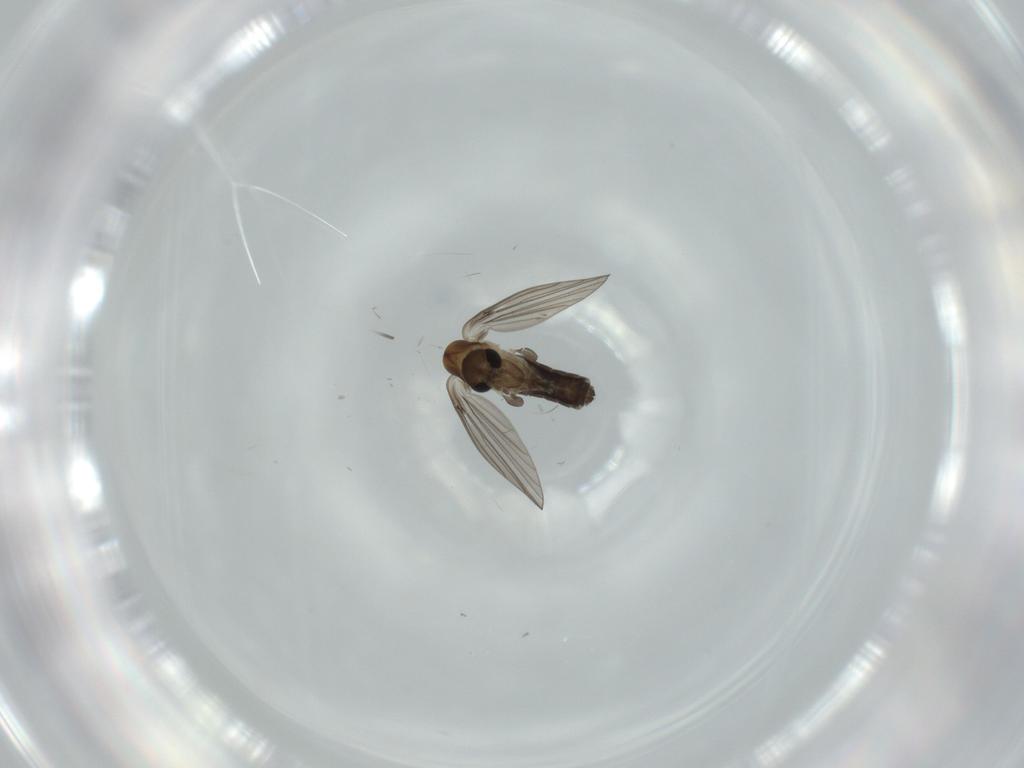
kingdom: Animalia
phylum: Arthropoda
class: Insecta
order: Diptera
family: Psychodidae
